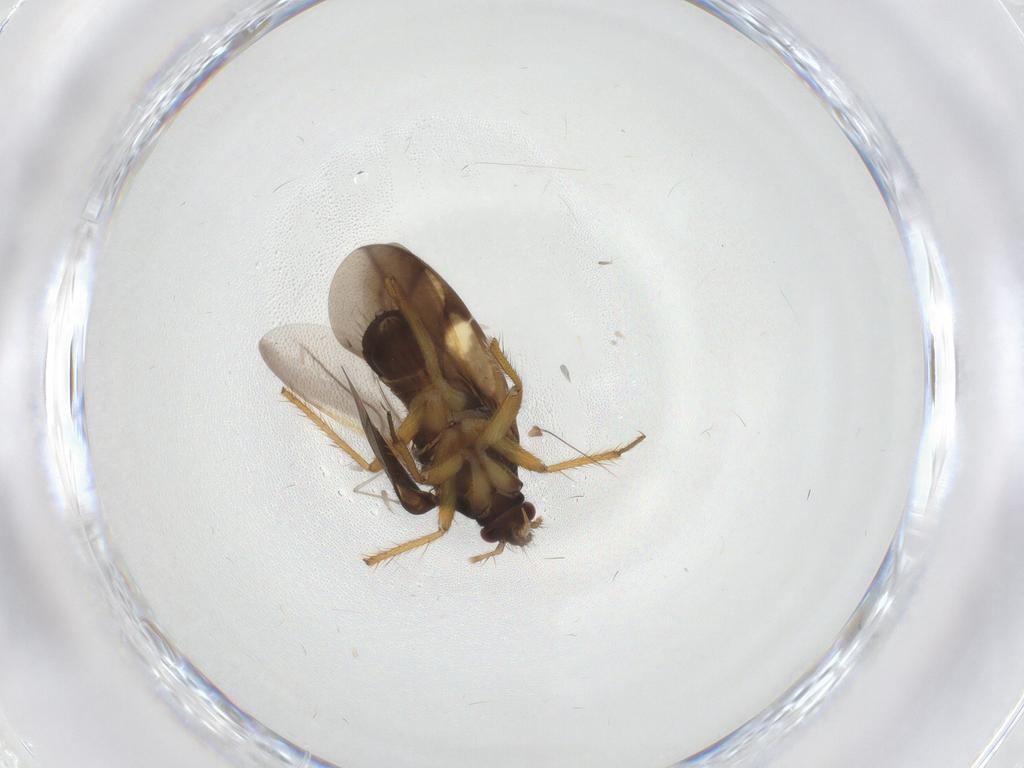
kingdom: Animalia
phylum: Arthropoda
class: Insecta
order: Hemiptera
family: Ceratocombidae
